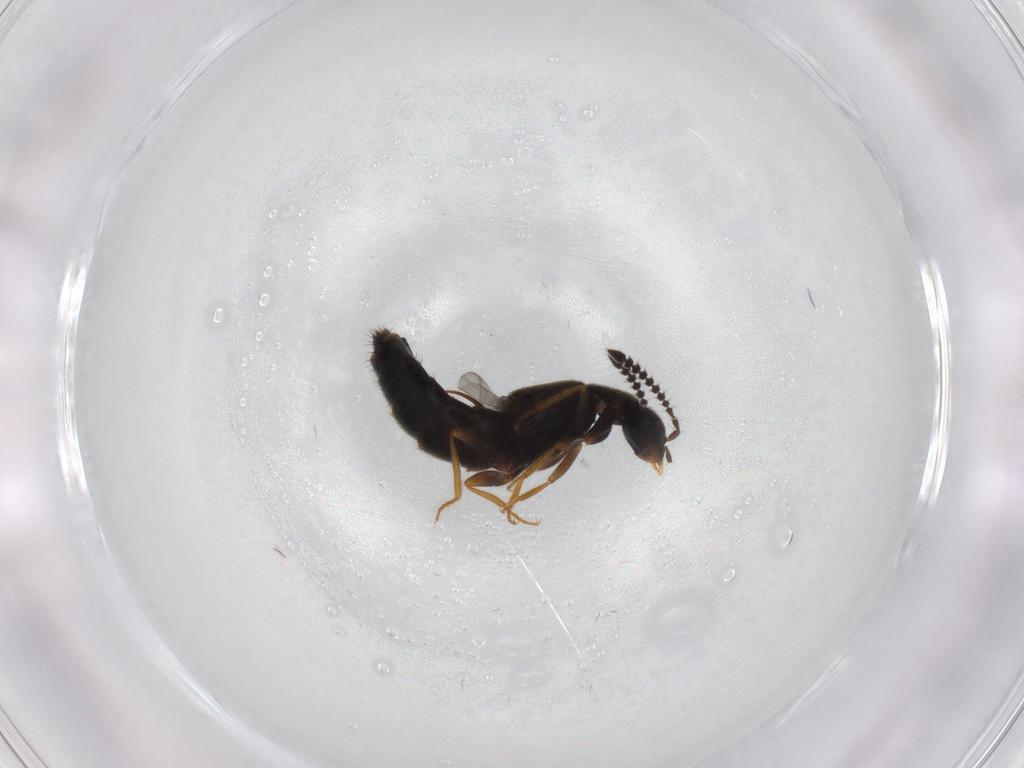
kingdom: Animalia
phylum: Arthropoda
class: Insecta
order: Coleoptera
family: Staphylinidae
